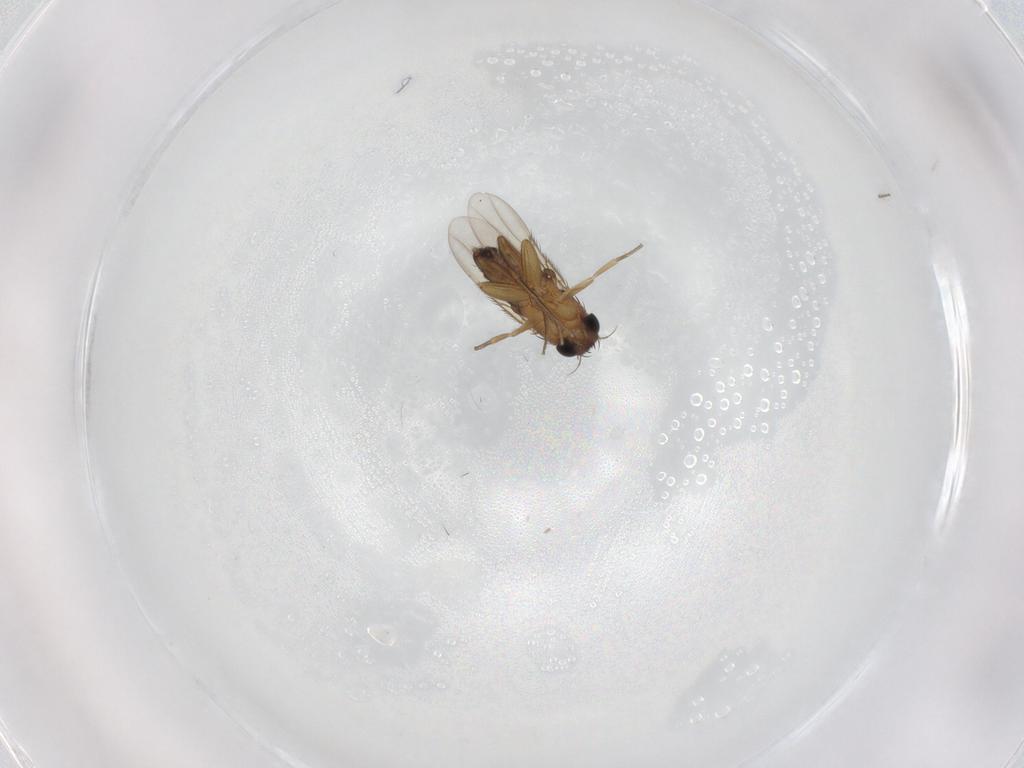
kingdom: Animalia
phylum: Arthropoda
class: Insecta
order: Diptera
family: Phoridae
